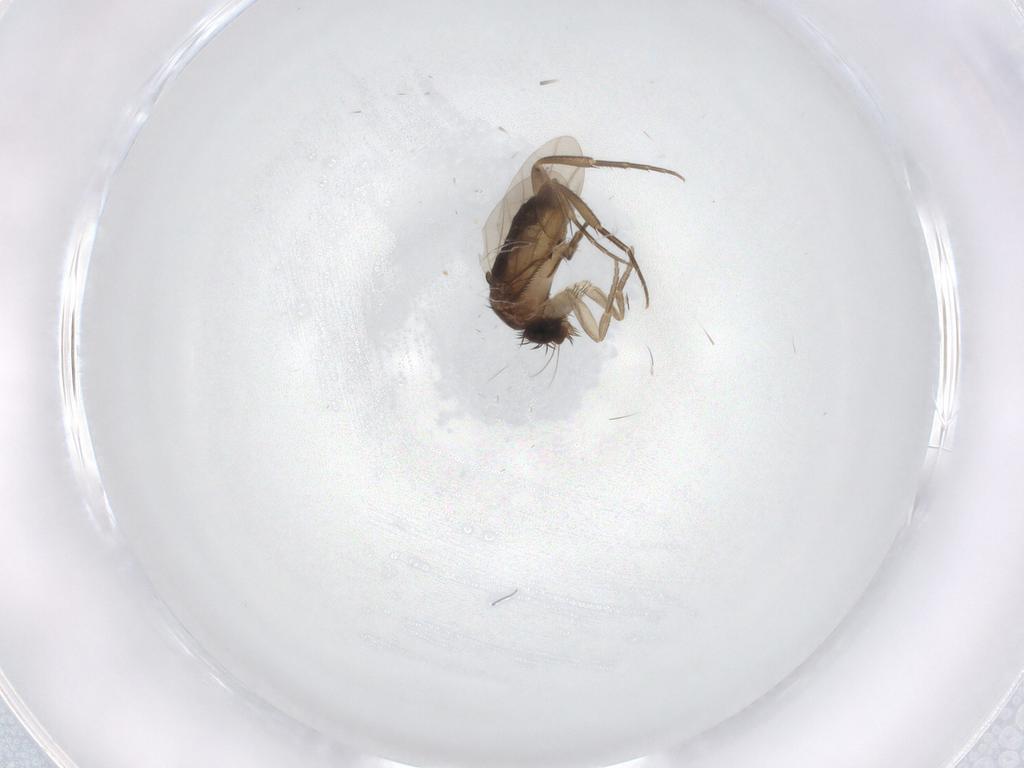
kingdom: Animalia
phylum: Arthropoda
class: Insecta
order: Diptera
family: Phoridae
